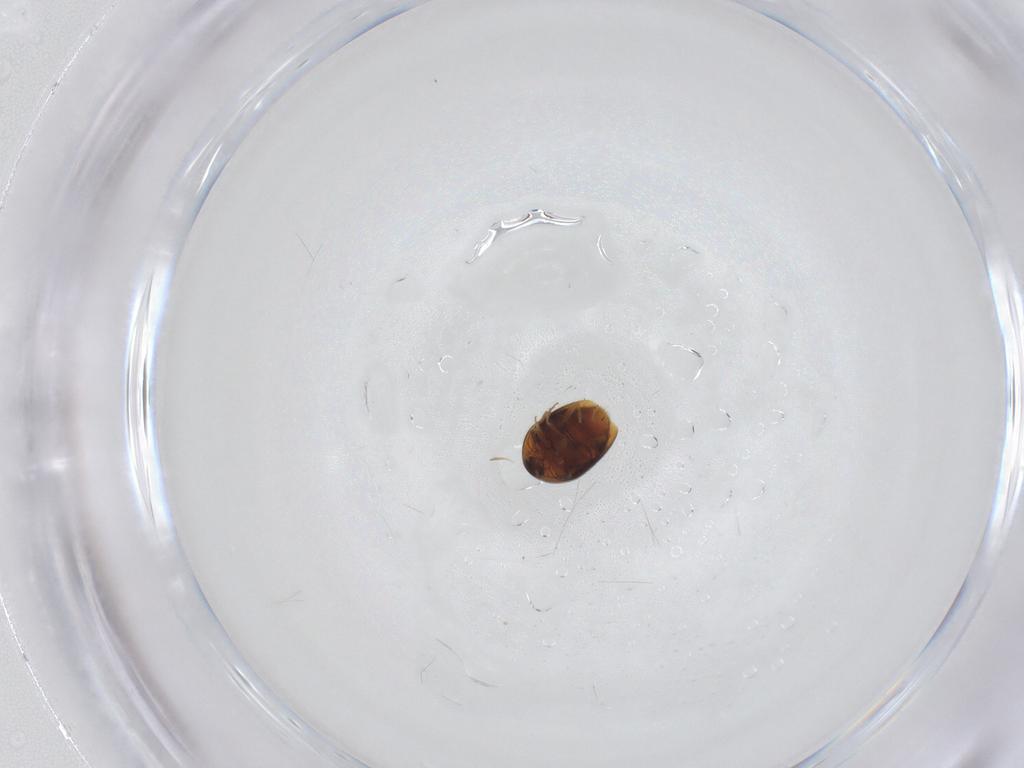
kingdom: Animalia
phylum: Arthropoda
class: Insecta
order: Coleoptera
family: Corylophidae
